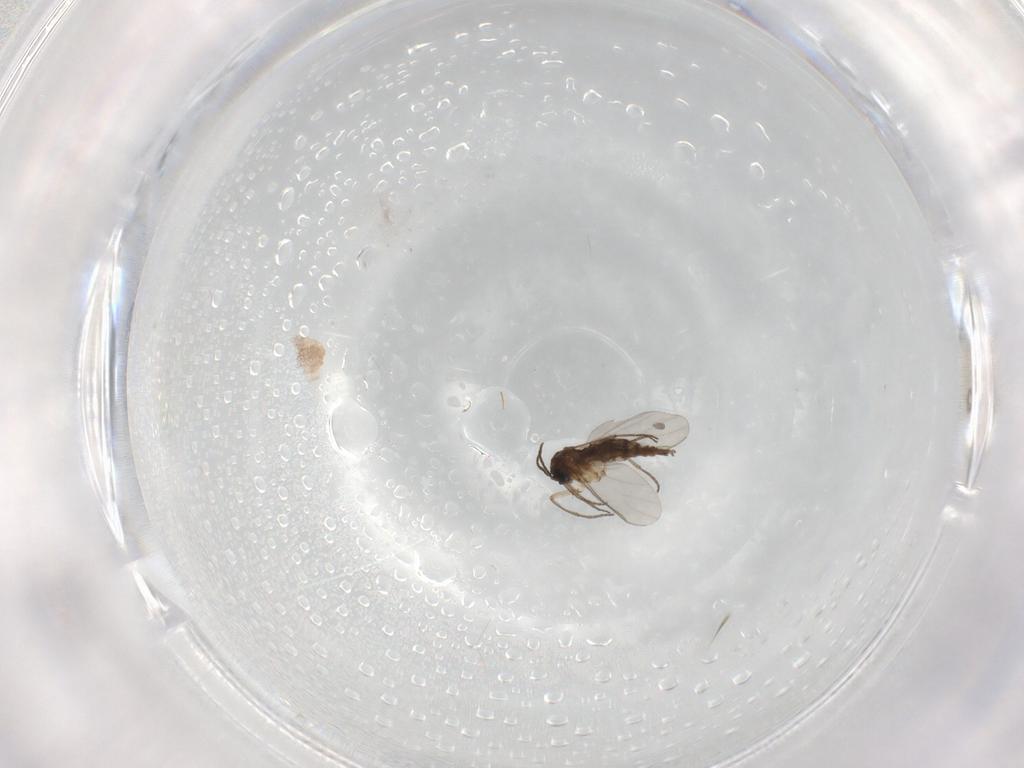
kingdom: Animalia
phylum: Arthropoda
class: Insecta
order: Diptera
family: Sciaridae
